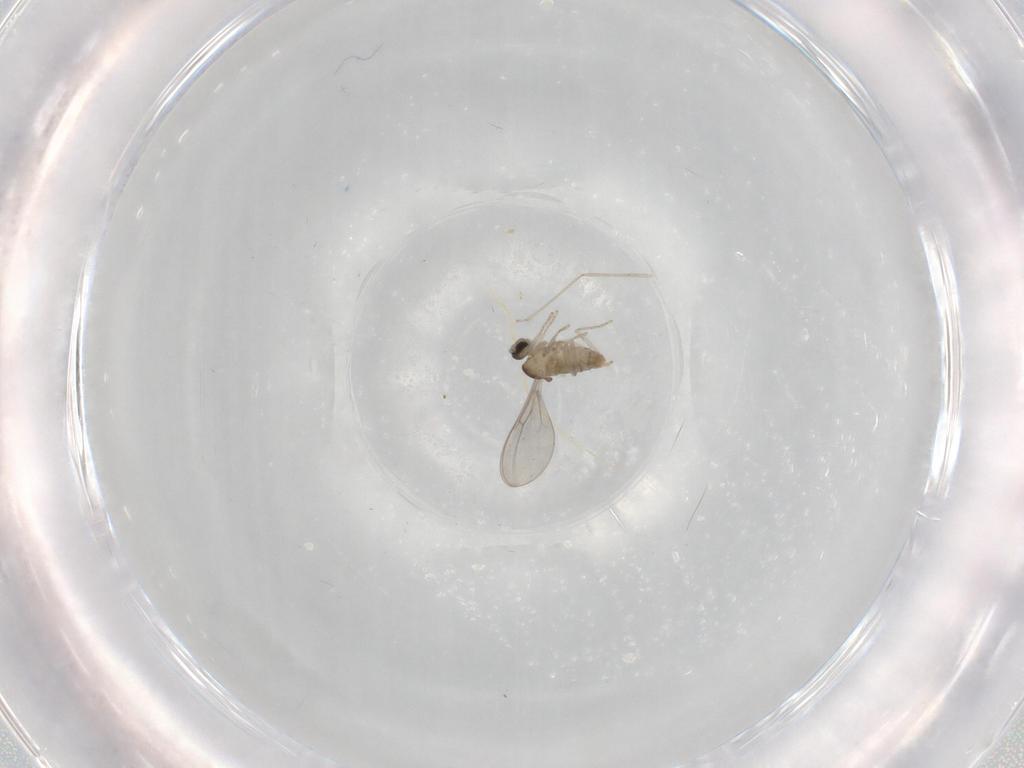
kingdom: Animalia
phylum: Arthropoda
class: Insecta
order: Diptera
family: Cecidomyiidae
